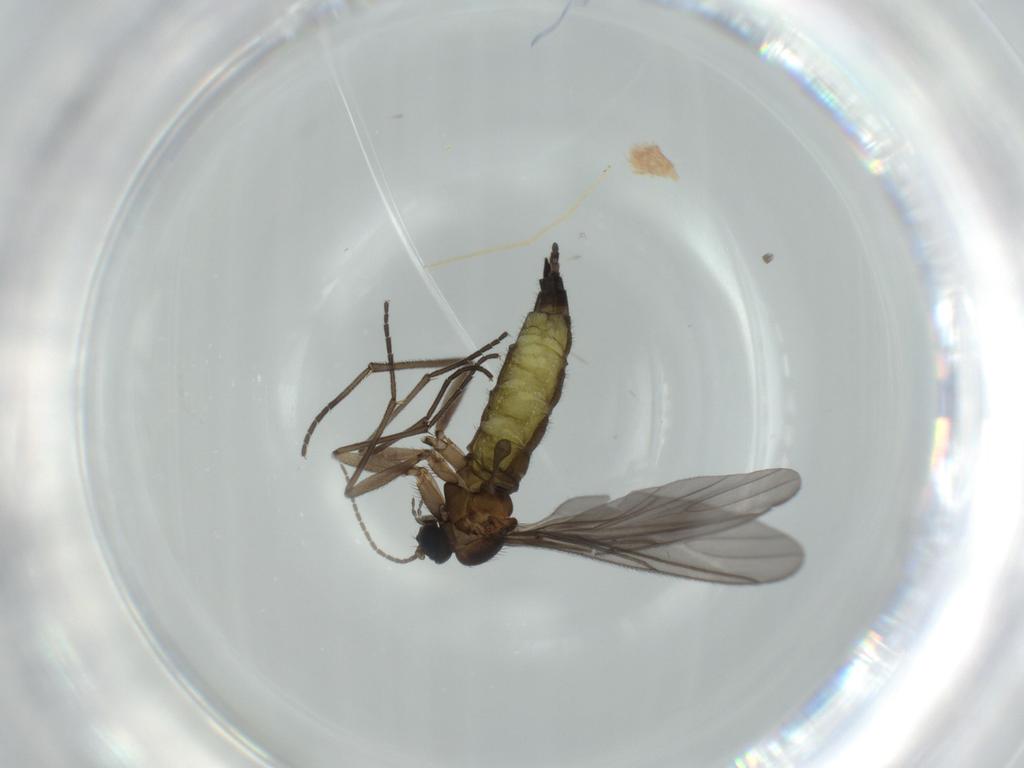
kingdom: Animalia
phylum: Arthropoda
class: Insecta
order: Diptera
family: Sciaridae
